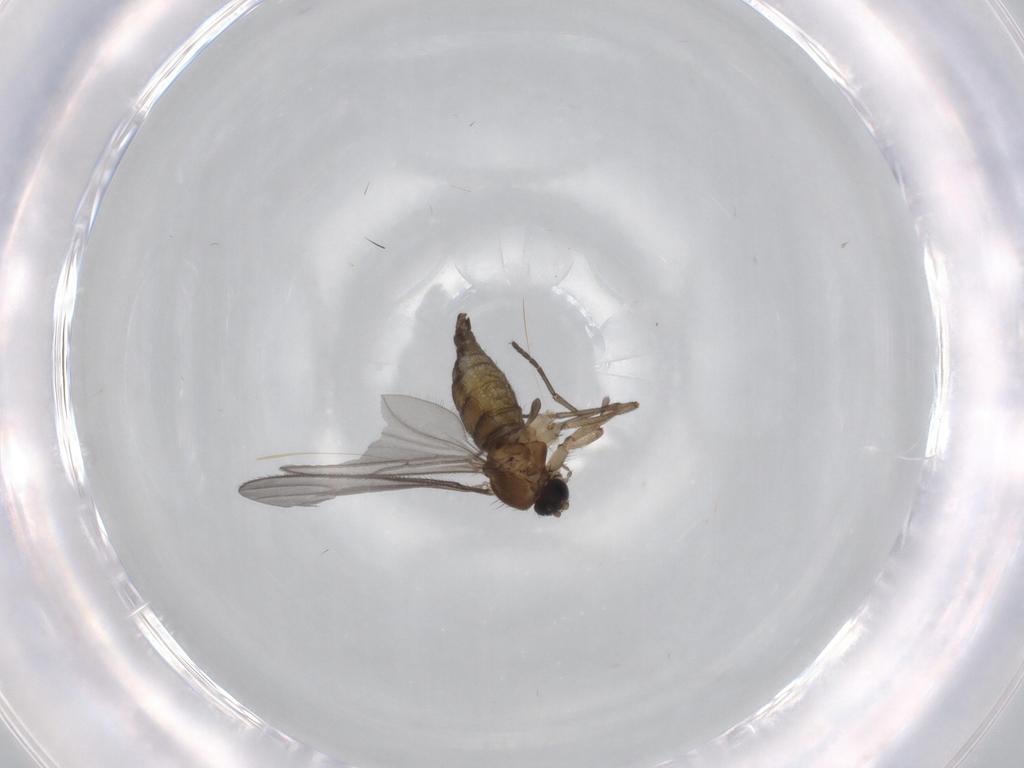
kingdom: Animalia
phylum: Arthropoda
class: Insecta
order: Diptera
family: Sciaridae
